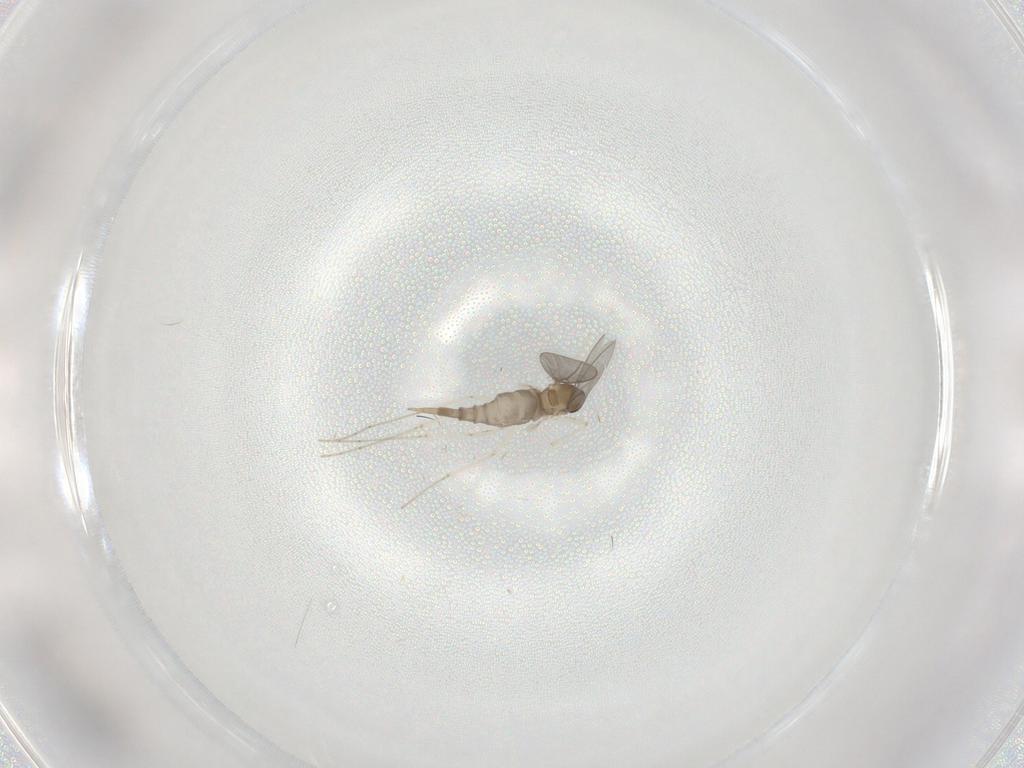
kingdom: Animalia
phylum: Arthropoda
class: Insecta
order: Diptera
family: Cecidomyiidae
